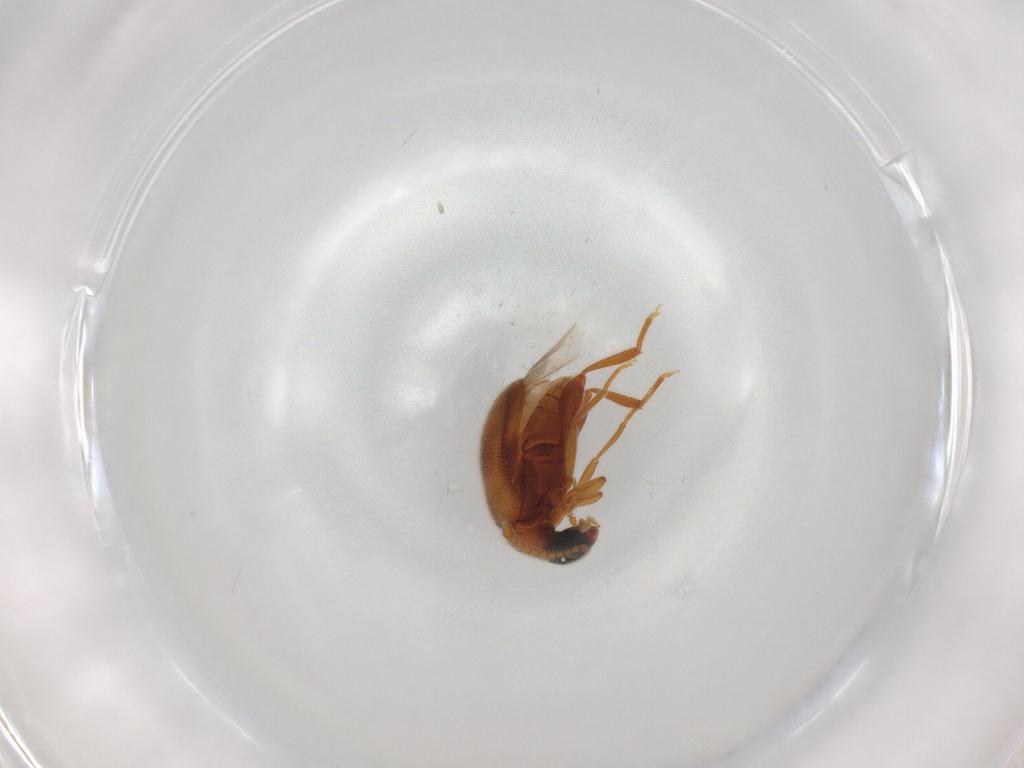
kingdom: Animalia
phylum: Arthropoda
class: Insecta
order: Coleoptera
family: Aderidae
